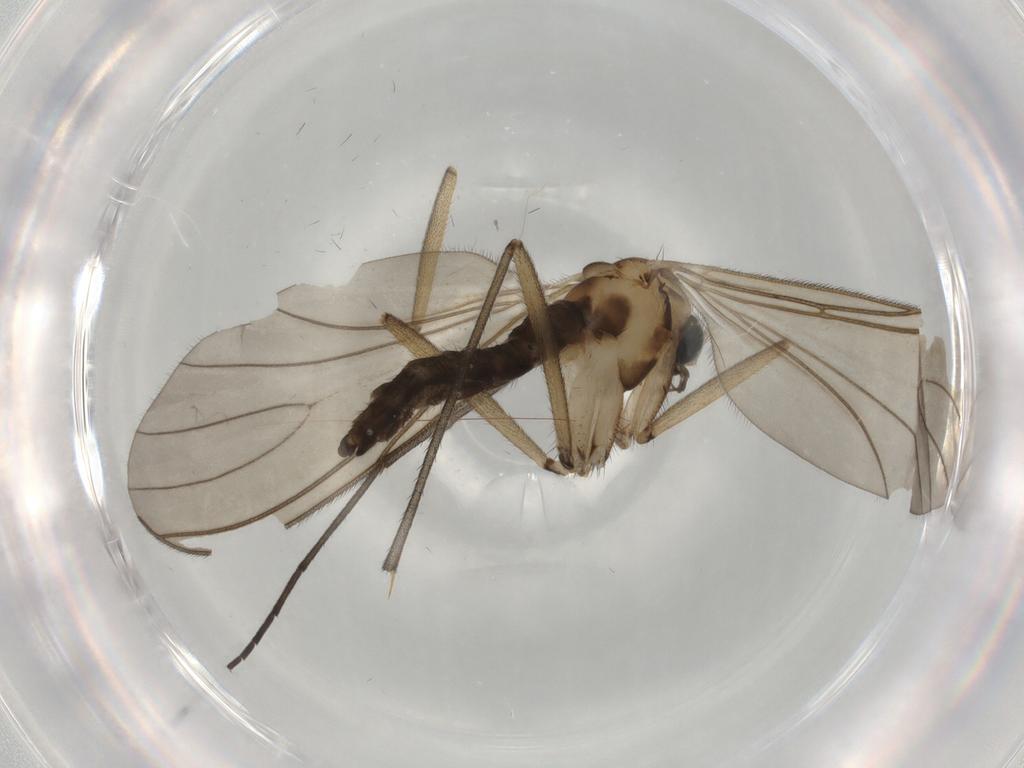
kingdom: Animalia
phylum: Arthropoda
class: Insecta
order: Diptera
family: Sciaridae
